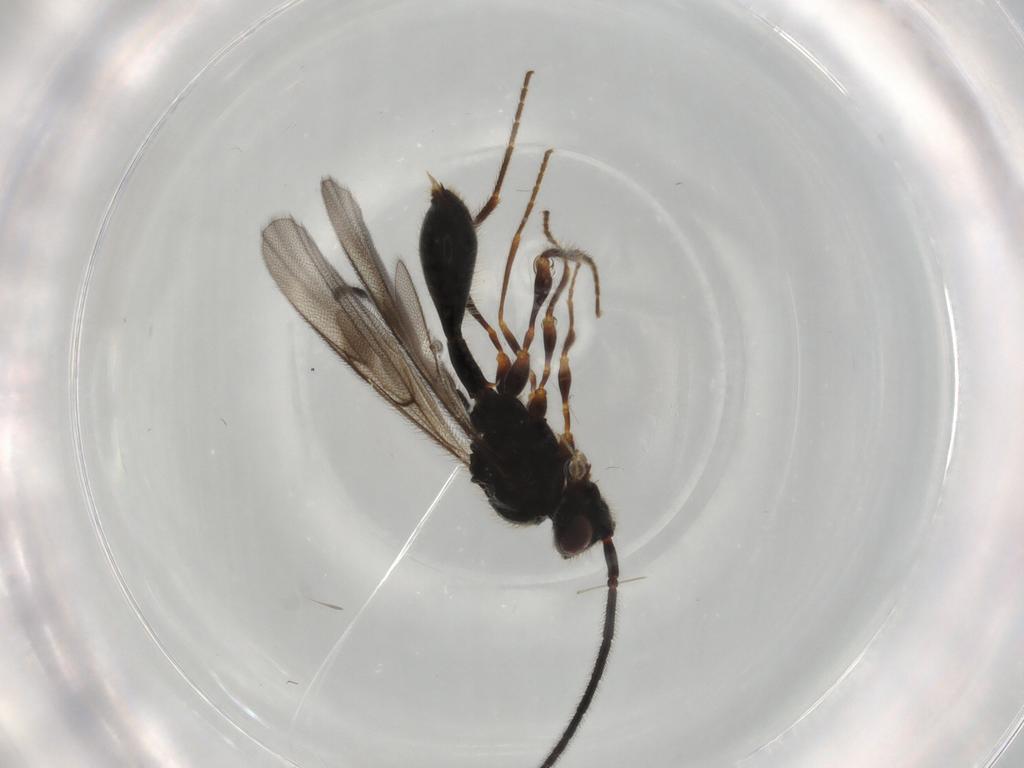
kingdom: Animalia
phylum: Arthropoda
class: Insecta
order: Hymenoptera
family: Diapriidae
